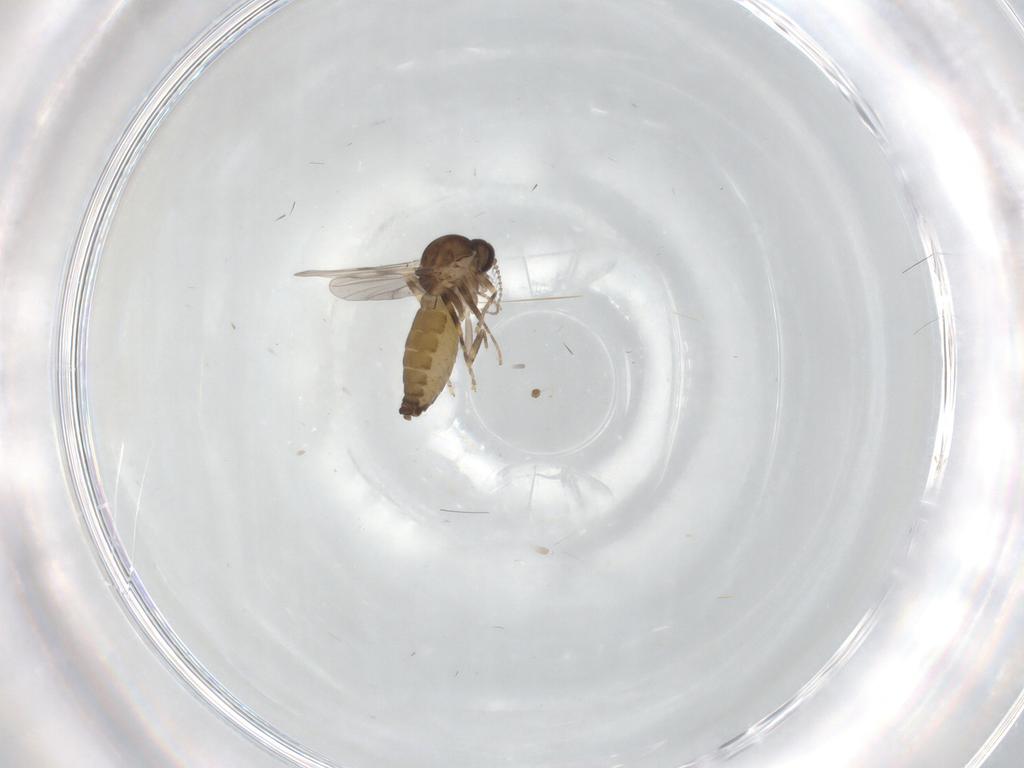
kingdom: Animalia
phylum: Arthropoda
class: Insecta
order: Diptera
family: Ceratopogonidae
